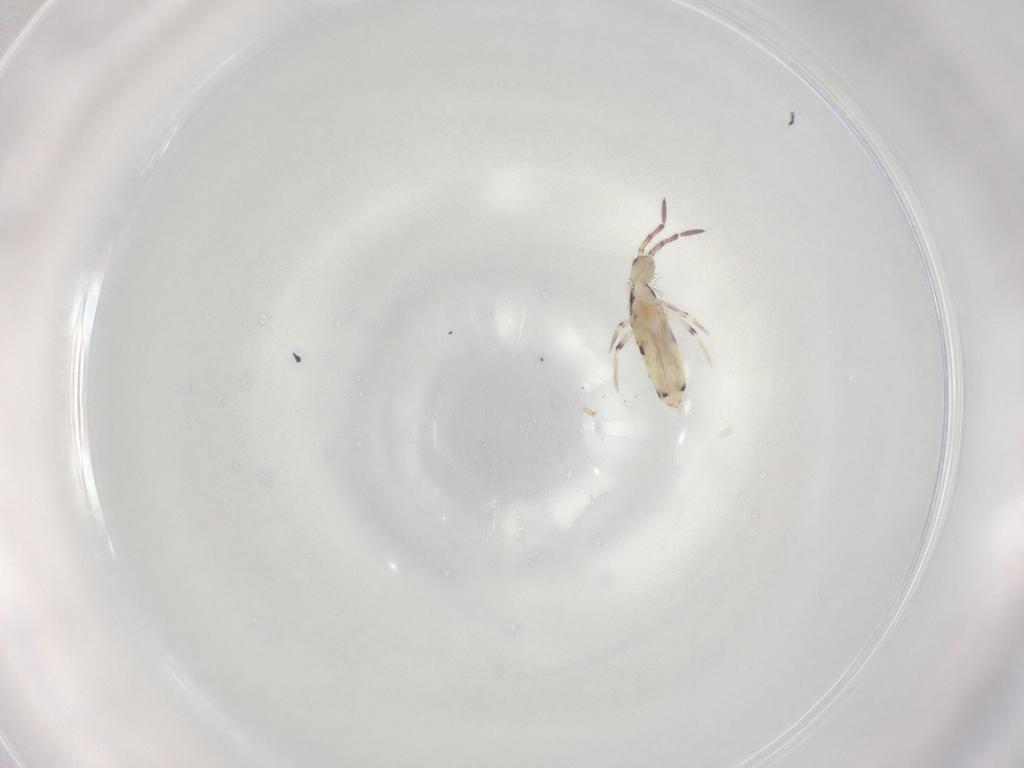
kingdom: Animalia
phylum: Arthropoda
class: Collembola
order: Entomobryomorpha
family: Entomobryidae
